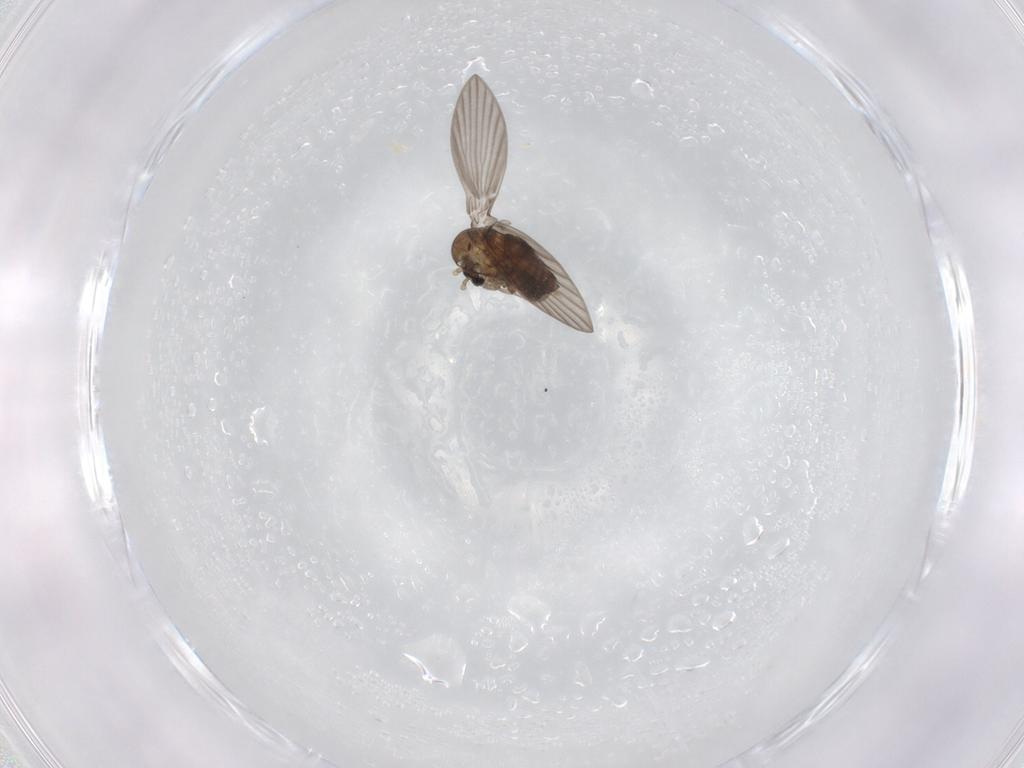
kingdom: Animalia
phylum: Arthropoda
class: Insecta
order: Diptera
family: Psychodidae
